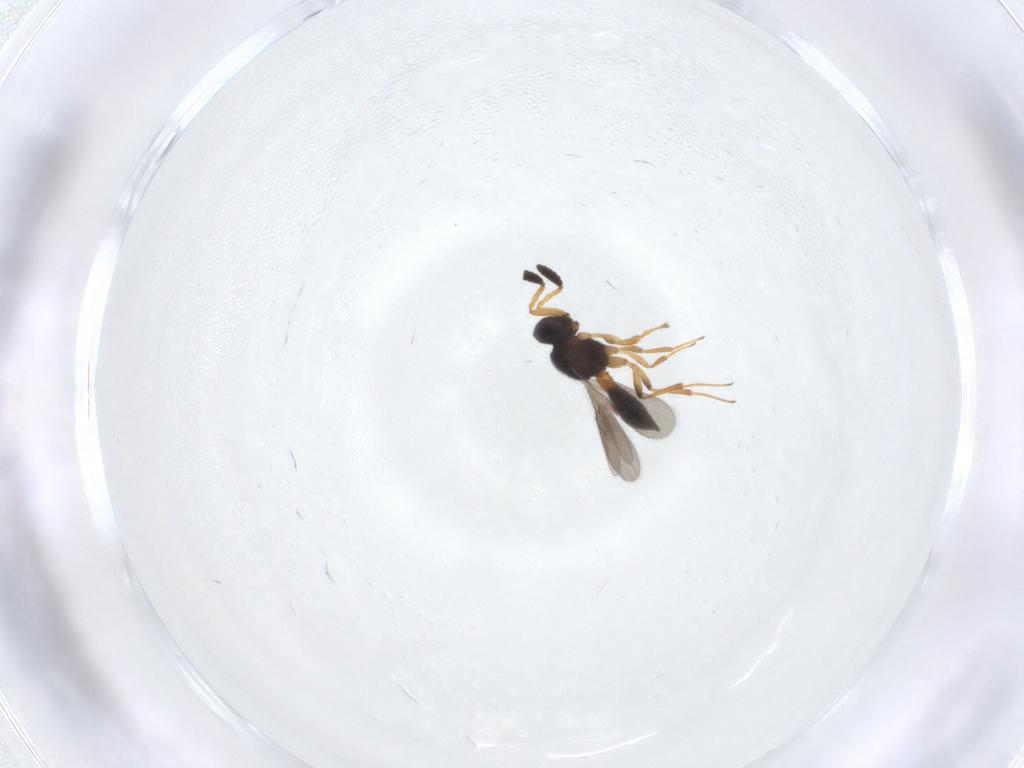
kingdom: Animalia
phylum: Arthropoda
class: Insecta
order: Hymenoptera
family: Scelionidae
